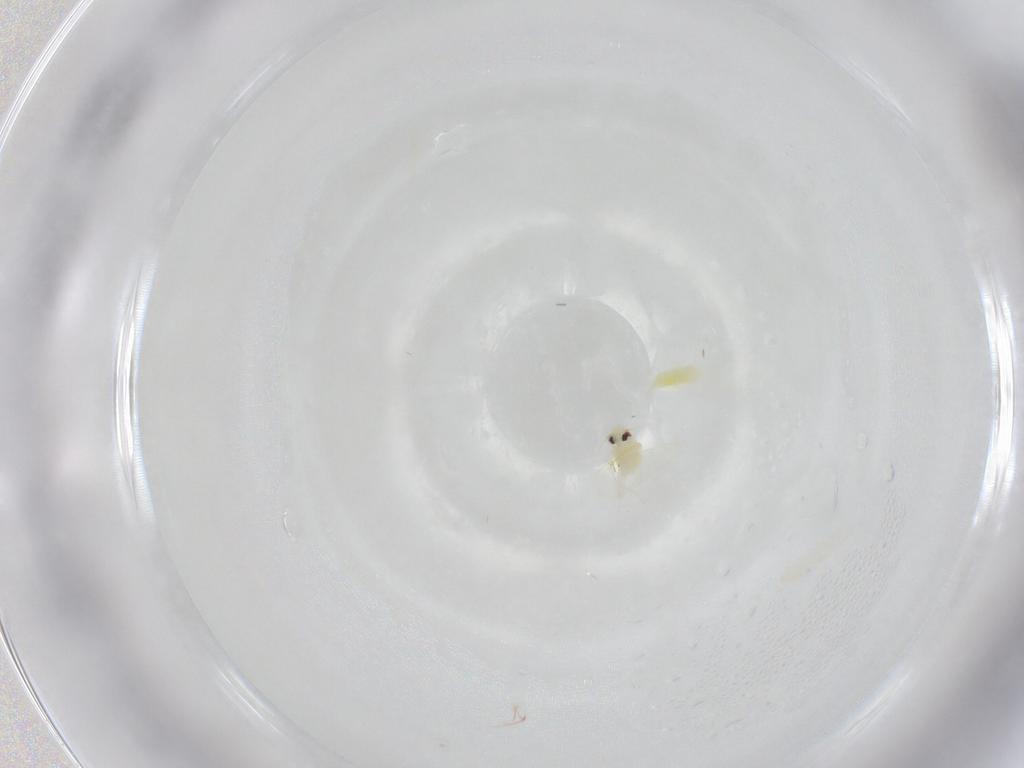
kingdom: Animalia
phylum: Arthropoda
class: Insecta
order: Hemiptera
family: Aleyrodidae
